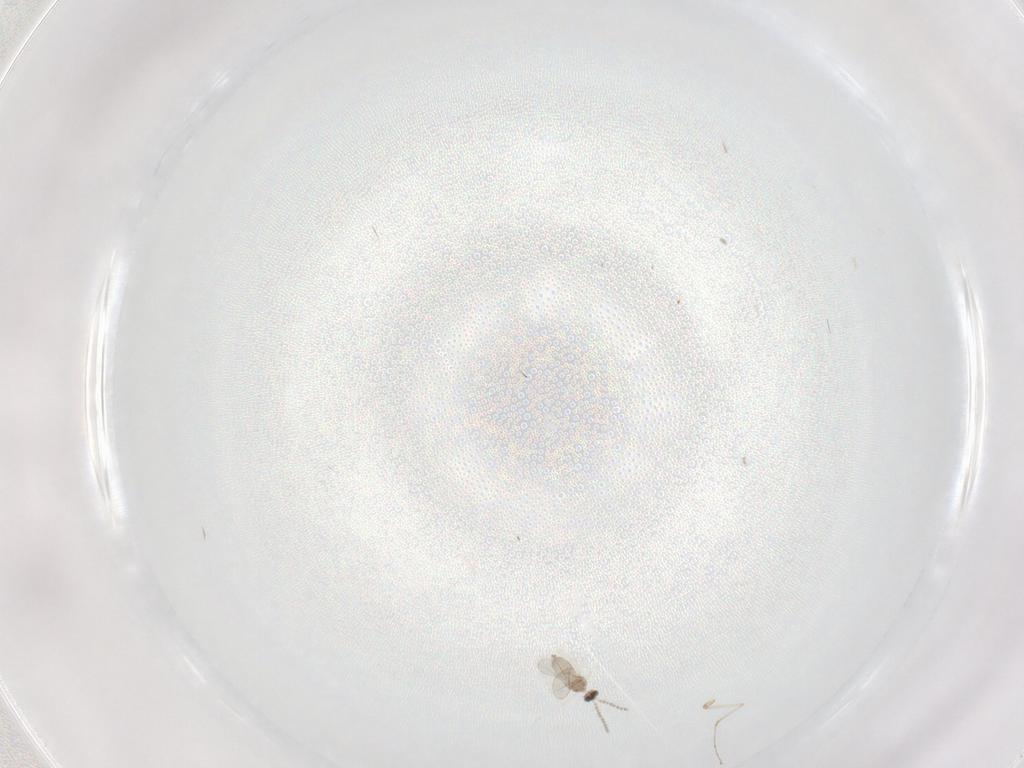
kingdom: Animalia
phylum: Arthropoda
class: Insecta
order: Diptera
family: Cecidomyiidae
